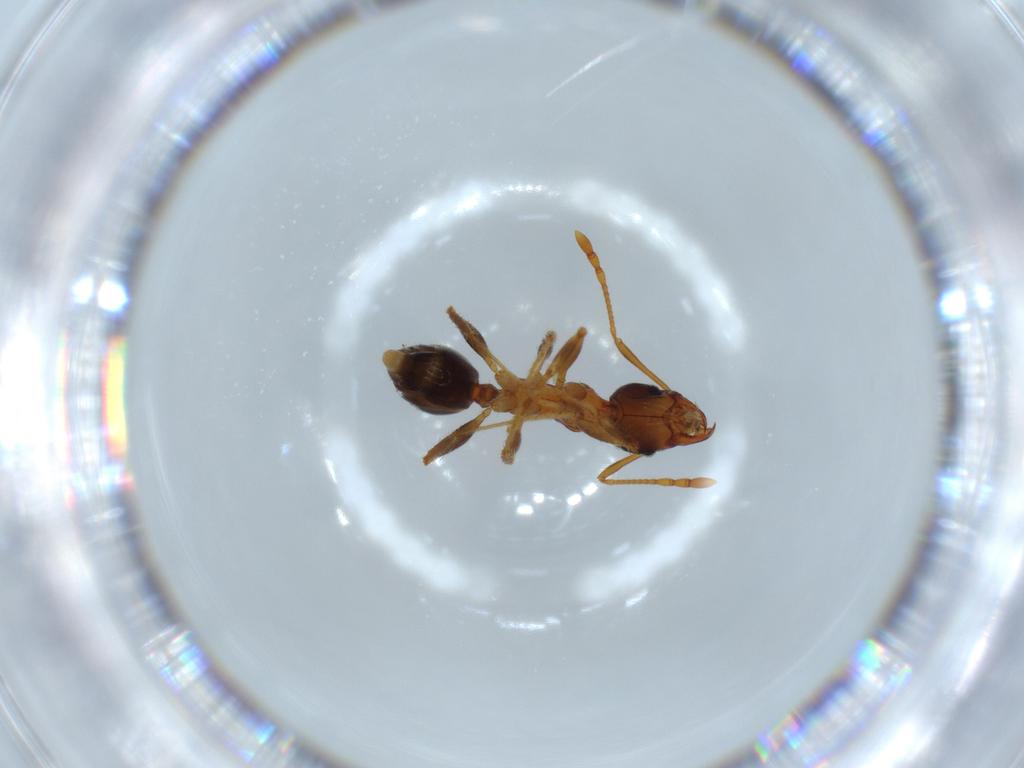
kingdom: Animalia
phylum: Arthropoda
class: Insecta
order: Hymenoptera
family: Formicidae
